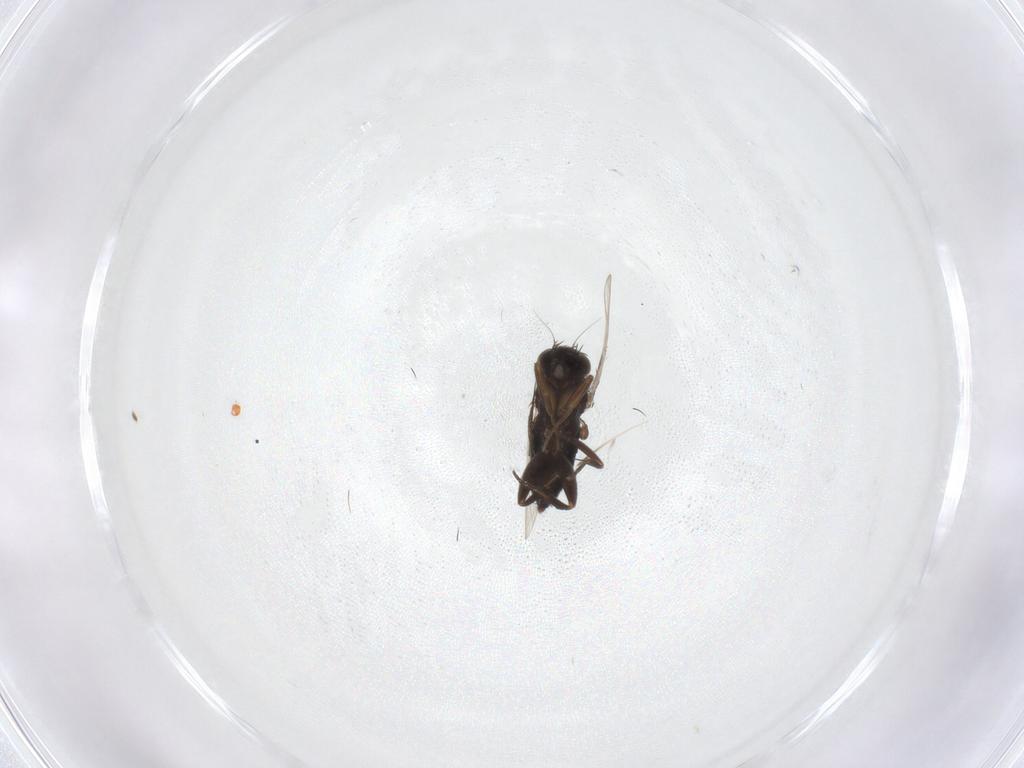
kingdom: Animalia
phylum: Arthropoda
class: Insecta
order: Diptera
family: Phoridae
